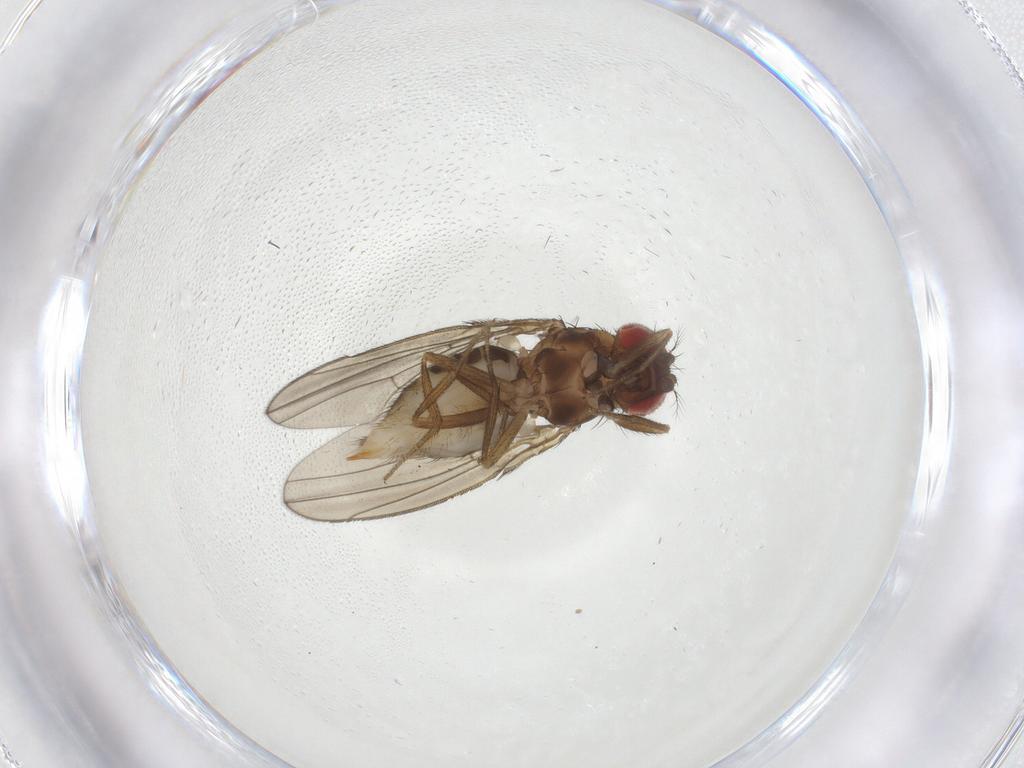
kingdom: Animalia
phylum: Arthropoda
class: Insecta
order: Diptera
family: Drosophilidae
